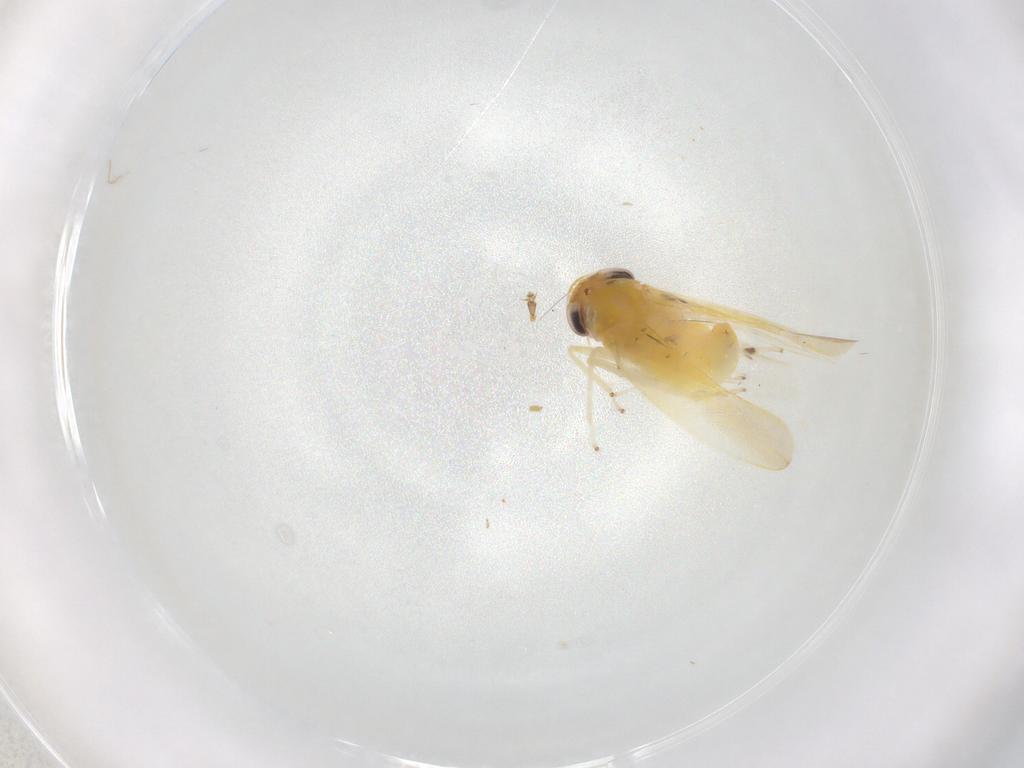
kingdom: Animalia
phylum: Arthropoda
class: Insecta
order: Hemiptera
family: Cicadellidae
